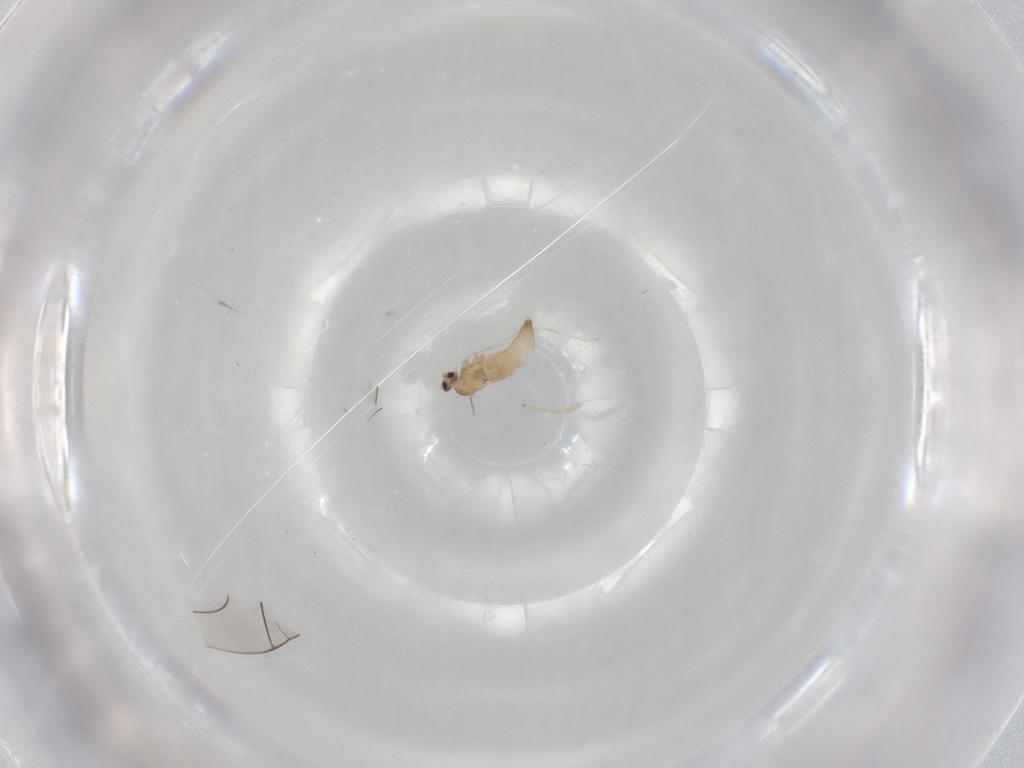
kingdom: Animalia
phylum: Arthropoda
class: Insecta
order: Diptera
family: Cecidomyiidae
